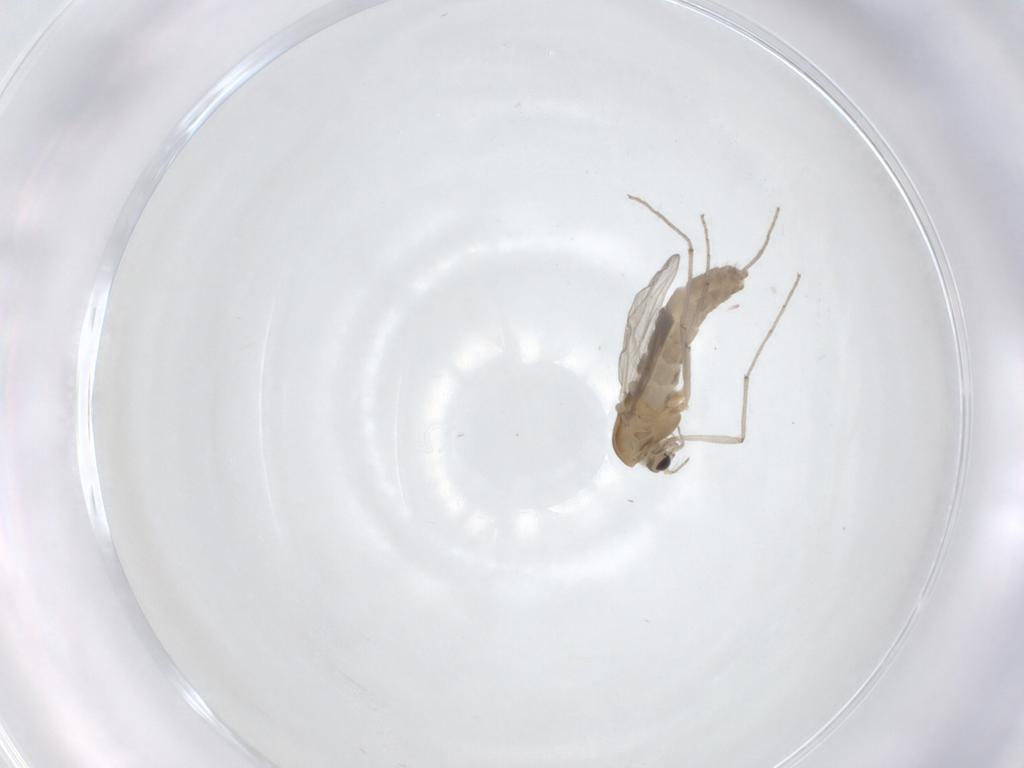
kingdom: Animalia
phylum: Arthropoda
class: Insecta
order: Diptera
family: Chironomidae
